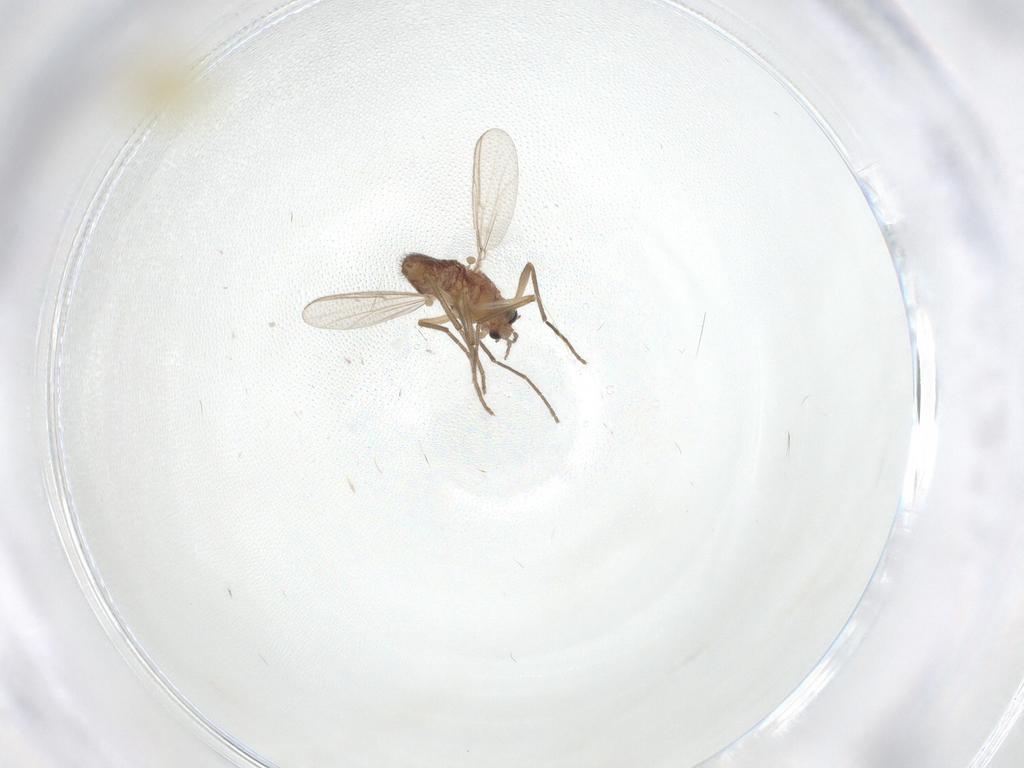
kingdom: Animalia
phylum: Arthropoda
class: Insecta
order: Diptera
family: Chironomidae
